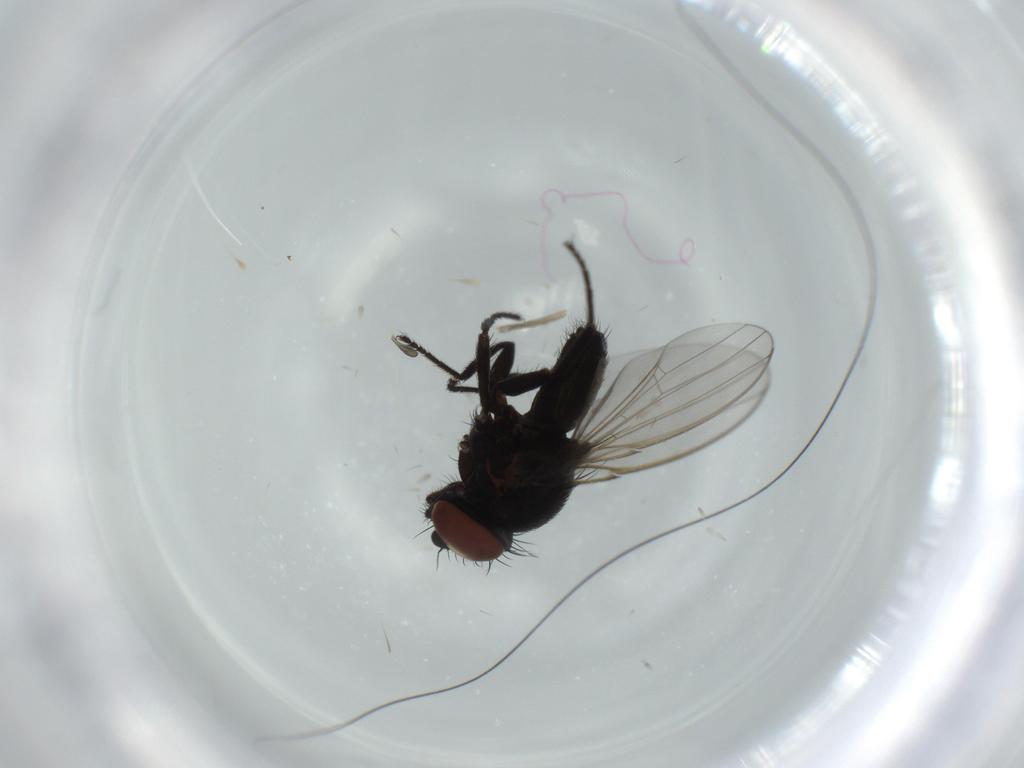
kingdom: Animalia
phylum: Arthropoda
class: Insecta
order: Diptera
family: Milichiidae
